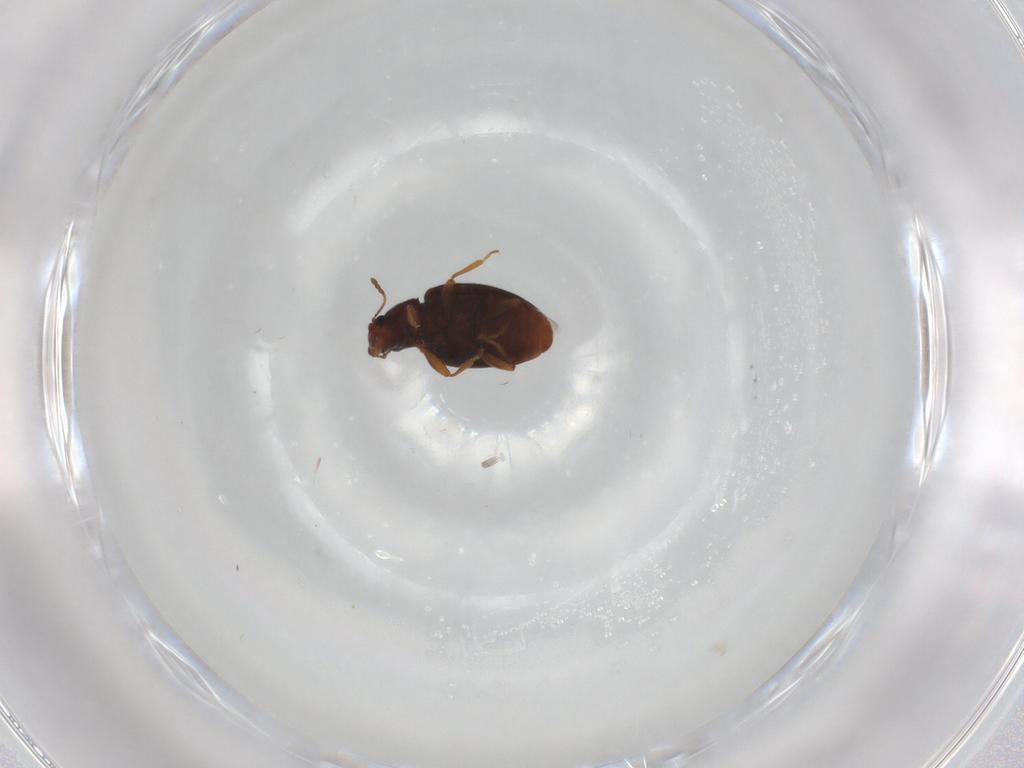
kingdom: Animalia
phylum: Arthropoda
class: Insecta
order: Coleoptera
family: Latridiidae
